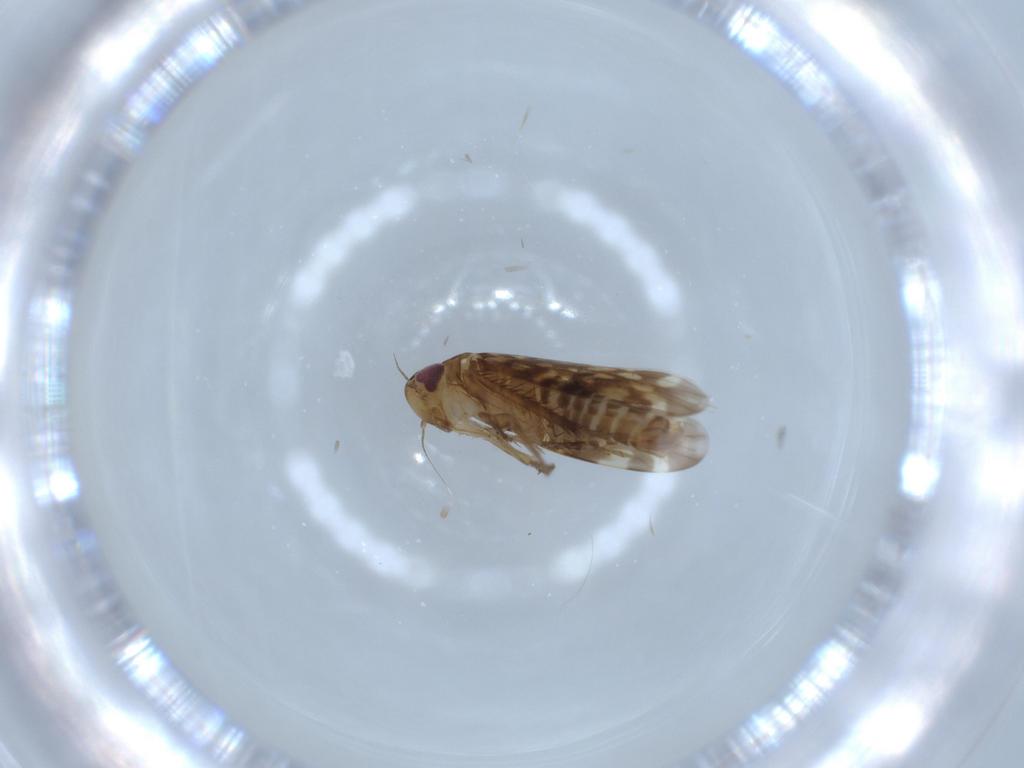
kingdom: Animalia
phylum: Arthropoda
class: Insecta
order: Hemiptera
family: Cicadellidae
